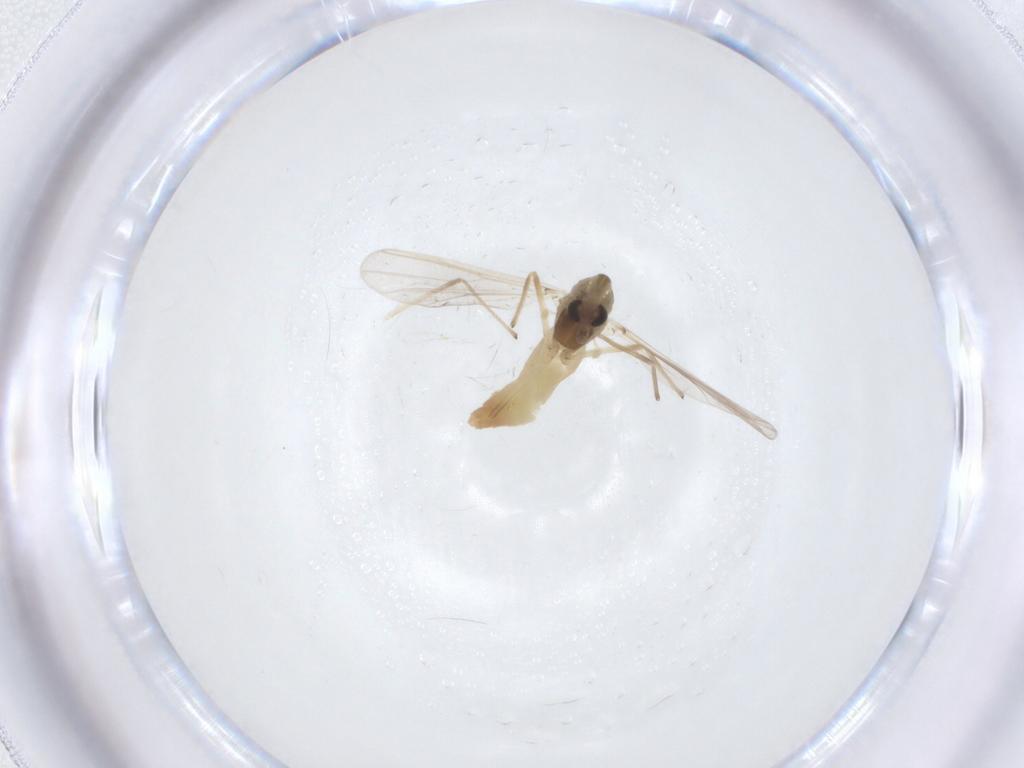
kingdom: Animalia
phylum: Arthropoda
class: Insecta
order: Diptera
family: Chironomidae
